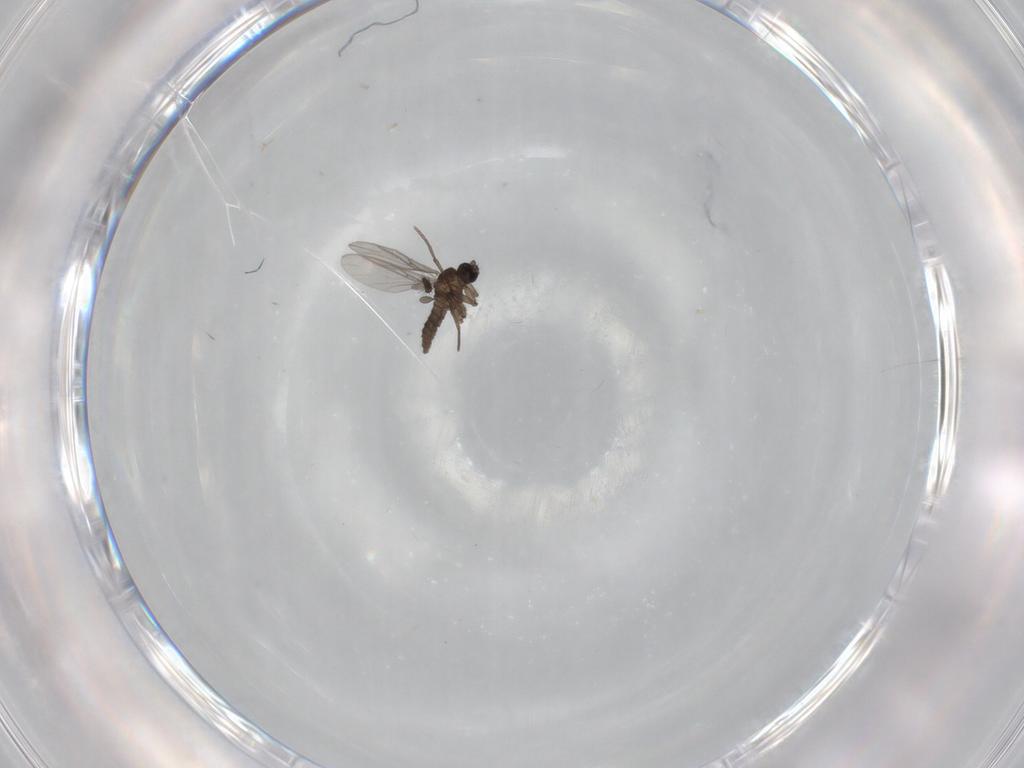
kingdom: Animalia
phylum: Arthropoda
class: Insecta
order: Diptera
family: Sciaridae
